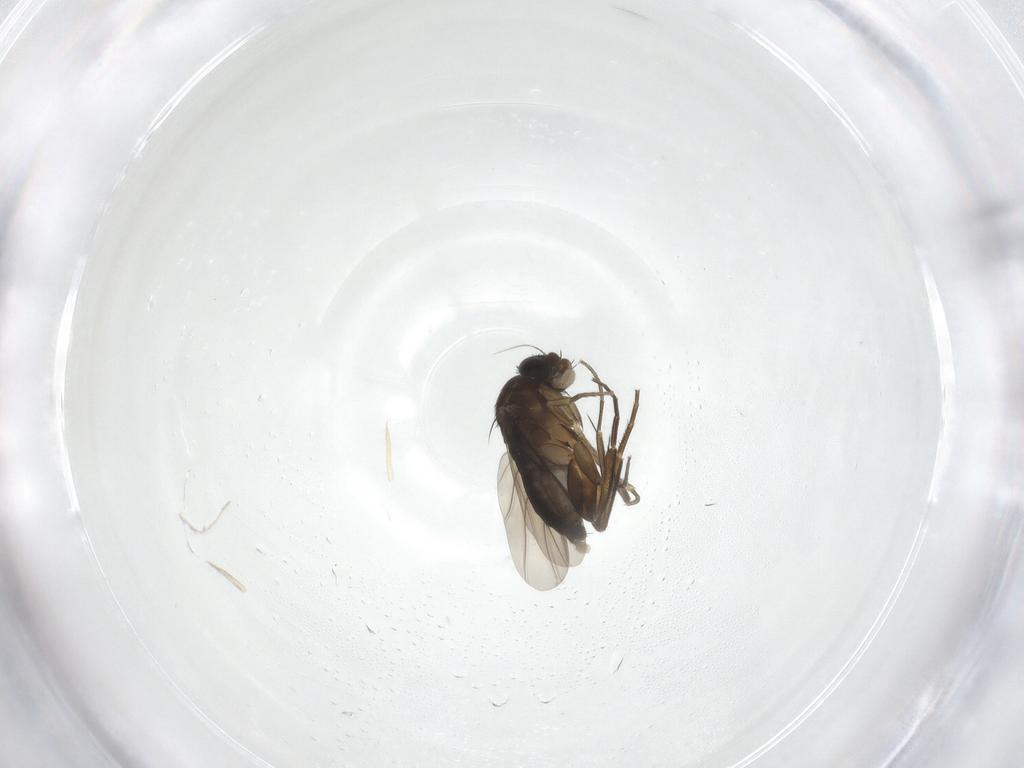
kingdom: Animalia
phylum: Arthropoda
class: Insecta
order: Diptera
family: Phoridae
